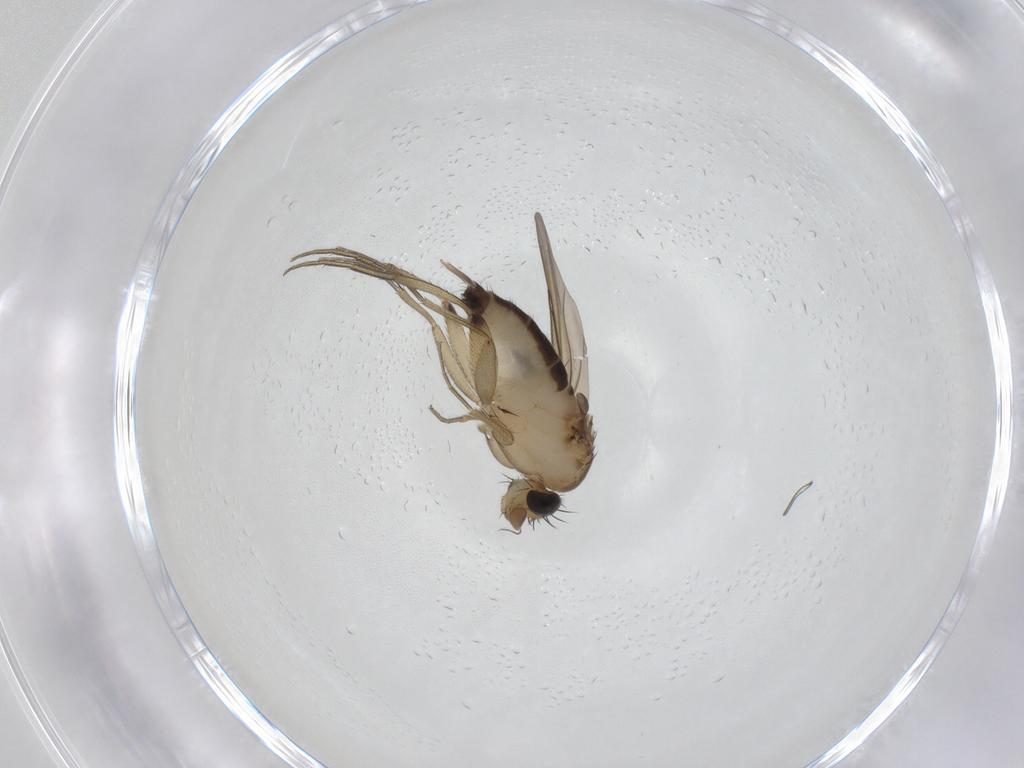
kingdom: Animalia
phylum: Arthropoda
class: Insecta
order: Diptera
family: Phoridae
